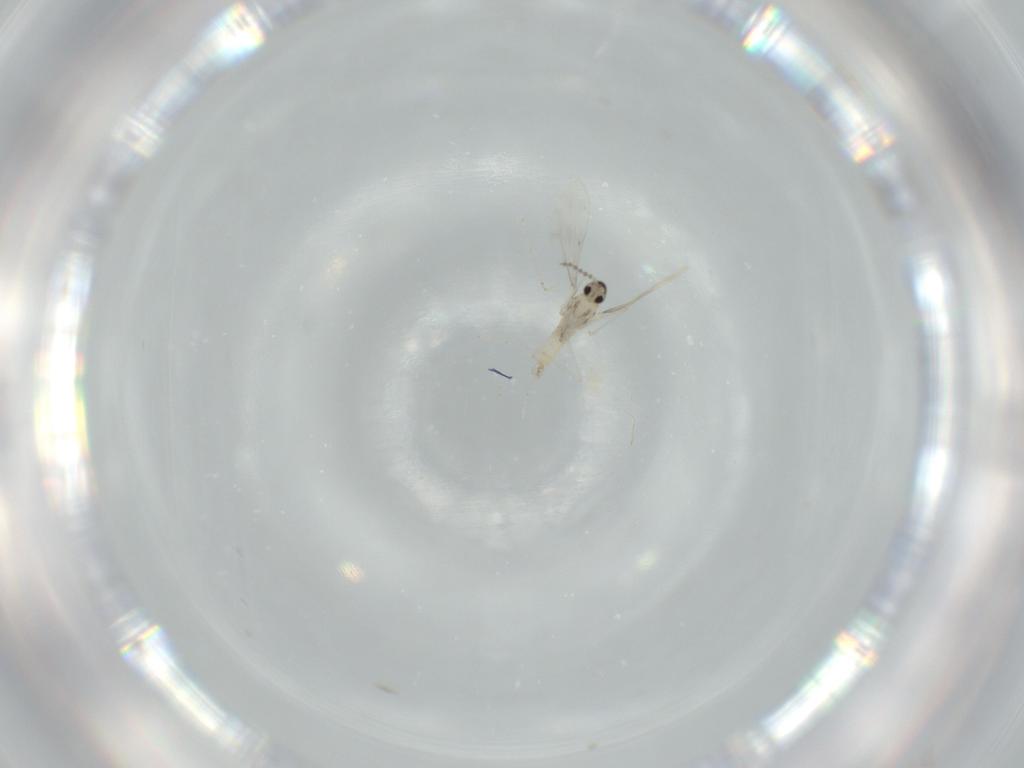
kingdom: Animalia
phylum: Arthropoda
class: Insecta
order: Diptera
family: Cecidomyiidae
